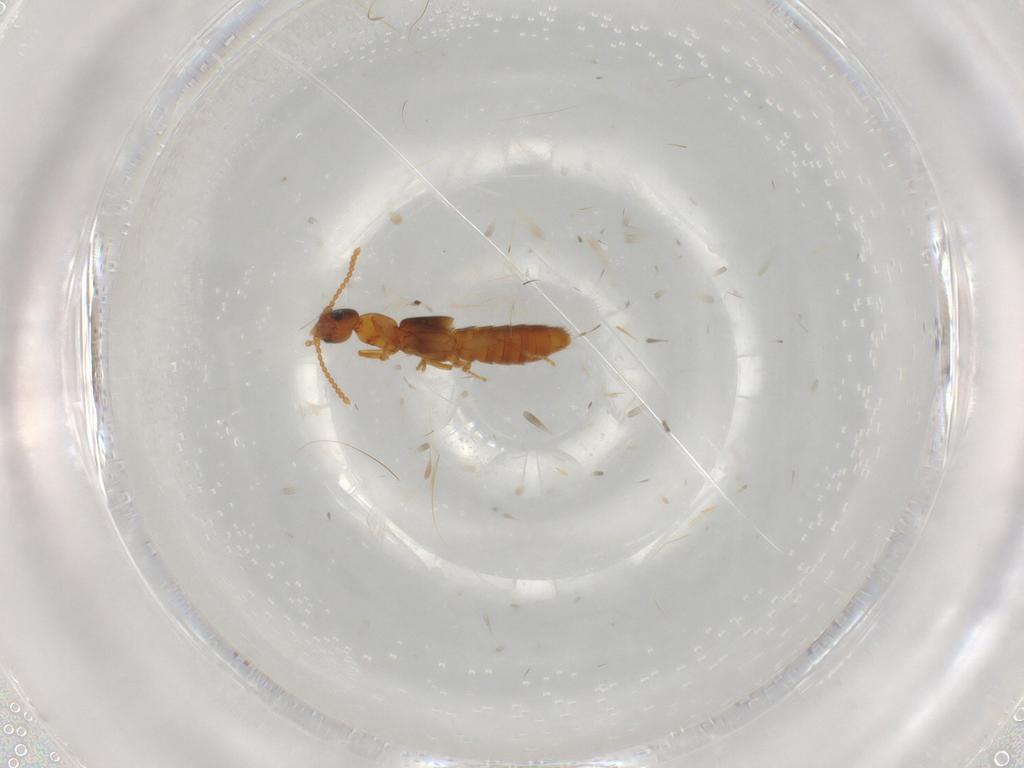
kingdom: Animalia
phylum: Arthropoda
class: Insecta
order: Coleoptera
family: Staphylinidae
